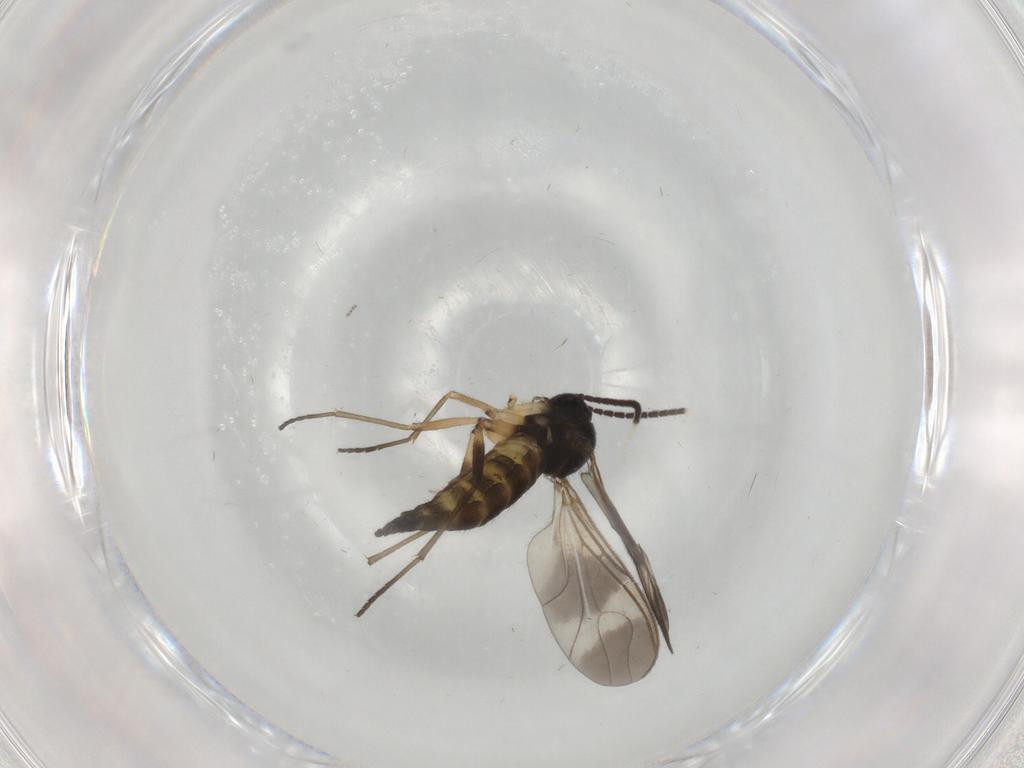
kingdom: Animalia
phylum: Arthropoda
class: Insecta
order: Diptera
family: Sciaridae
